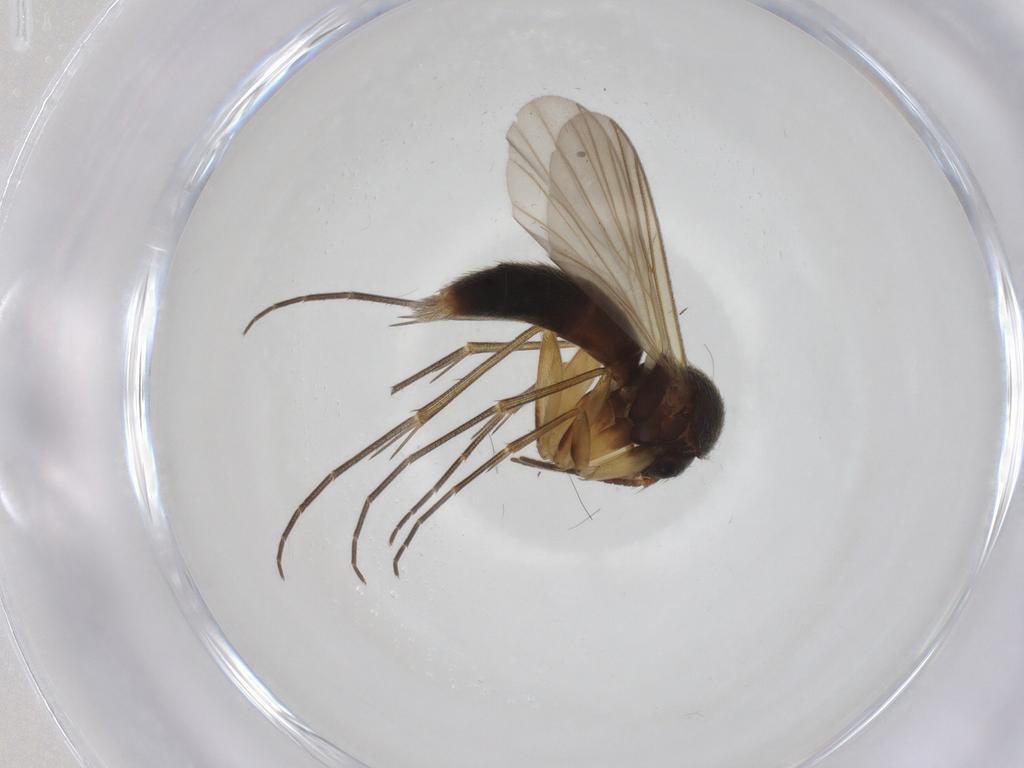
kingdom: Animalia
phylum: Arthropoda
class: Insecta
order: Diptera
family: Mycetophilidae
